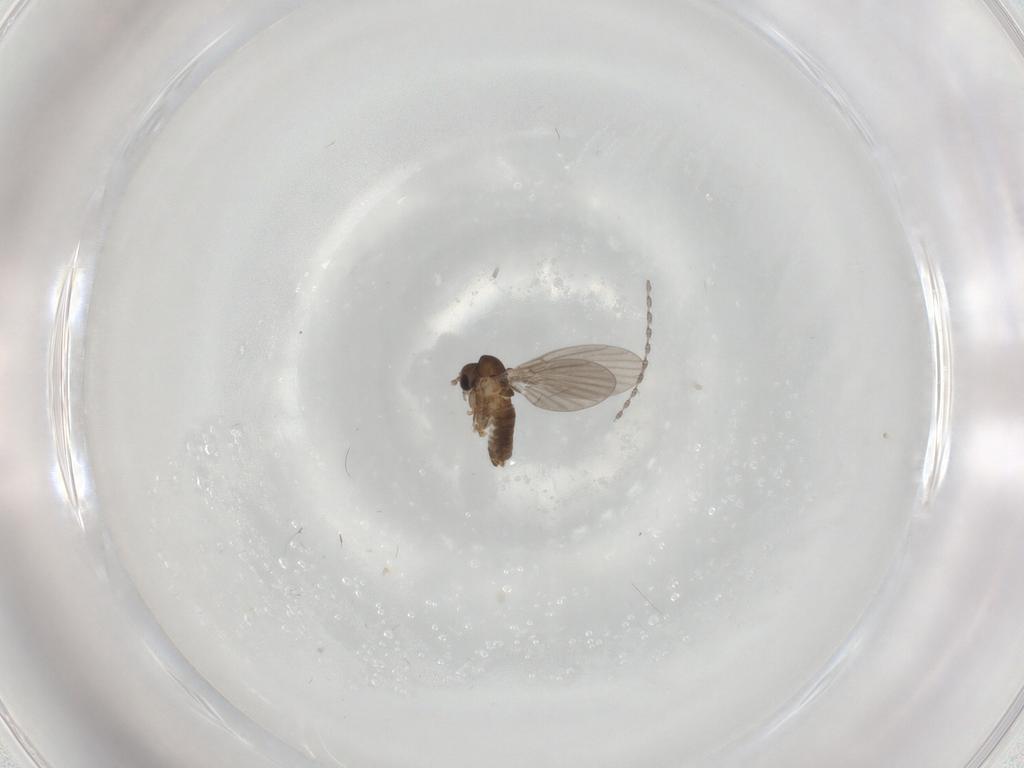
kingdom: Animalia
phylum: Arthropoda
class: Insecta
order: Diptera
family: Cecidomyiidae
